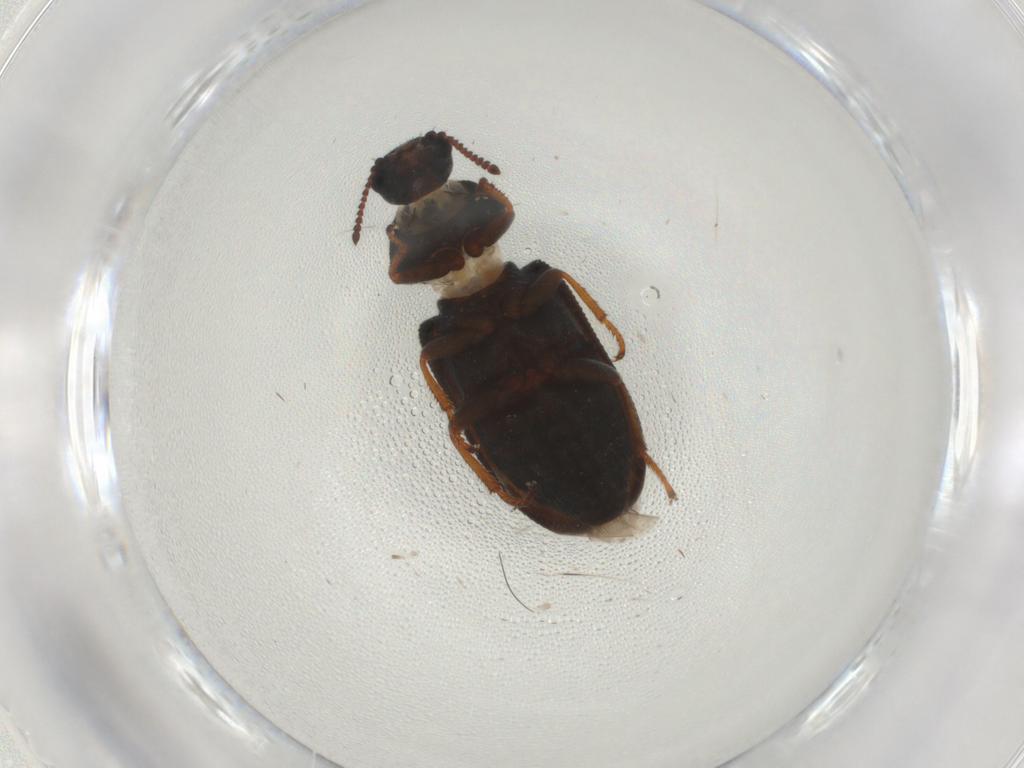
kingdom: Animalia
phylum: Arthropoda
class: Insecta
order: Coleoptera
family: Melyridae
